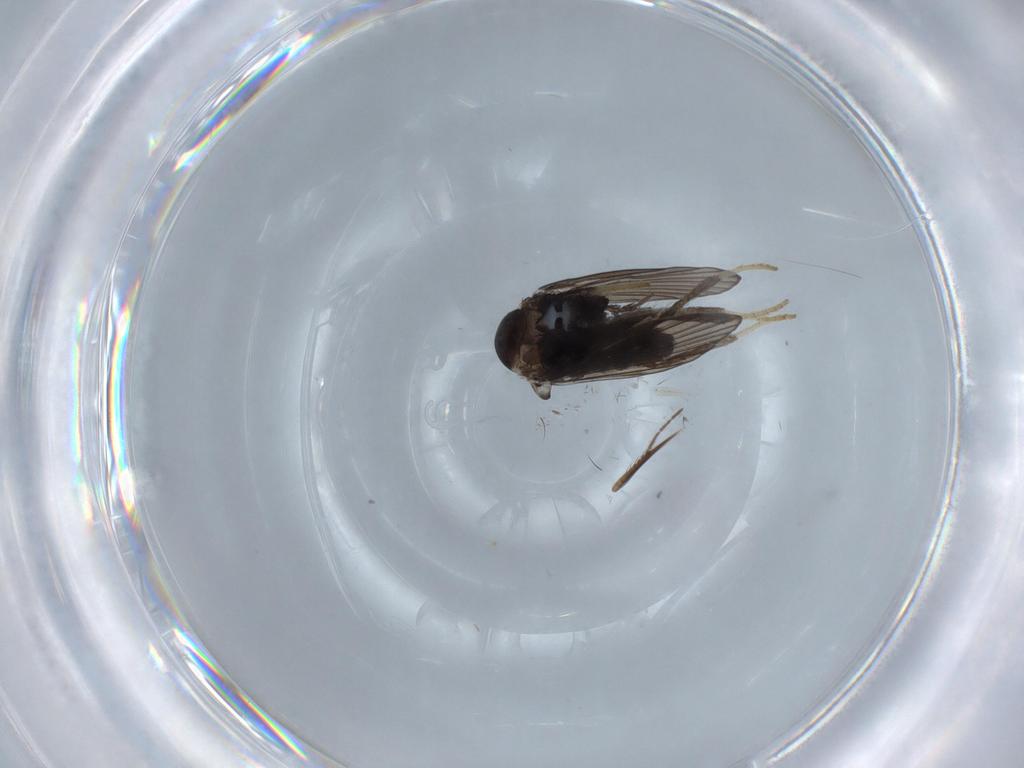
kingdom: Animalia
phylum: Arthropoda
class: Insecta
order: Diptera
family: Psychodidae
